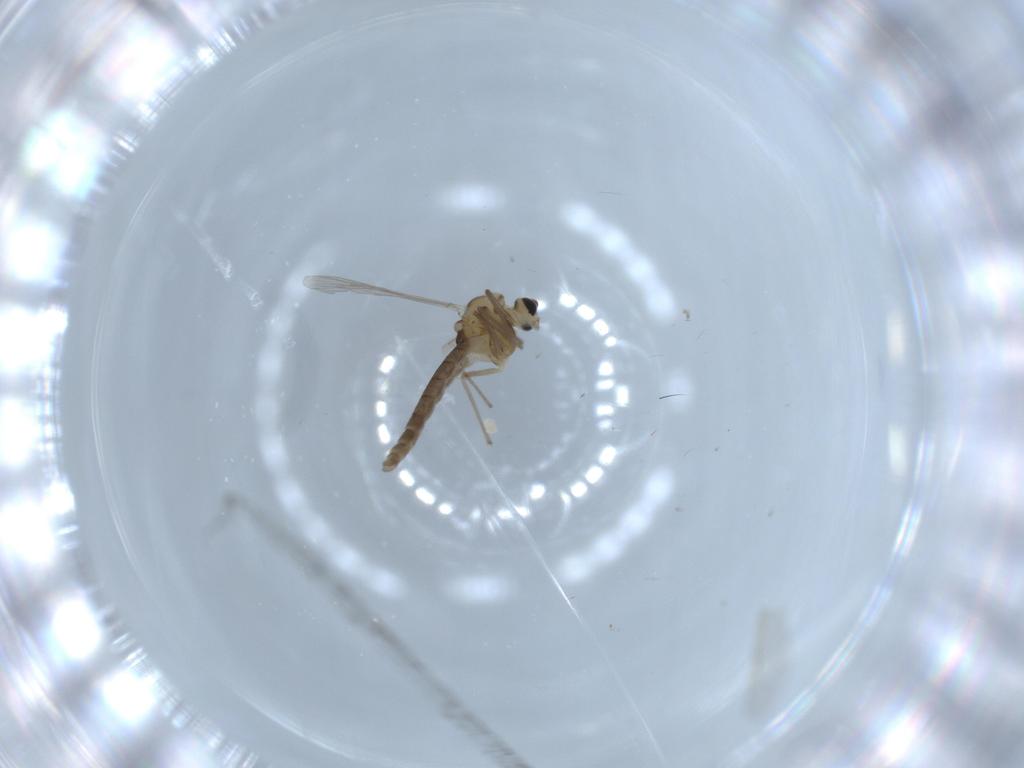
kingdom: Animalia
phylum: Arthropoda
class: Insecta
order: Diptera
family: Chironomidae
